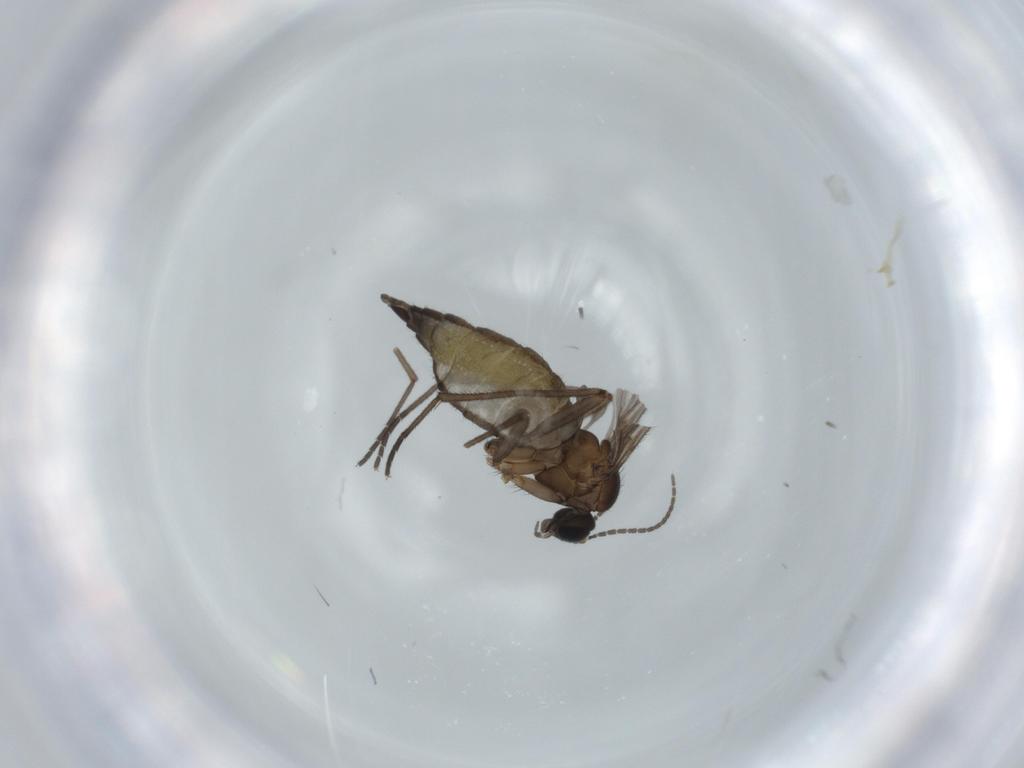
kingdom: Animalia
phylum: Arthropoda
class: Insecta
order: Diptera
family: Sciaridae
